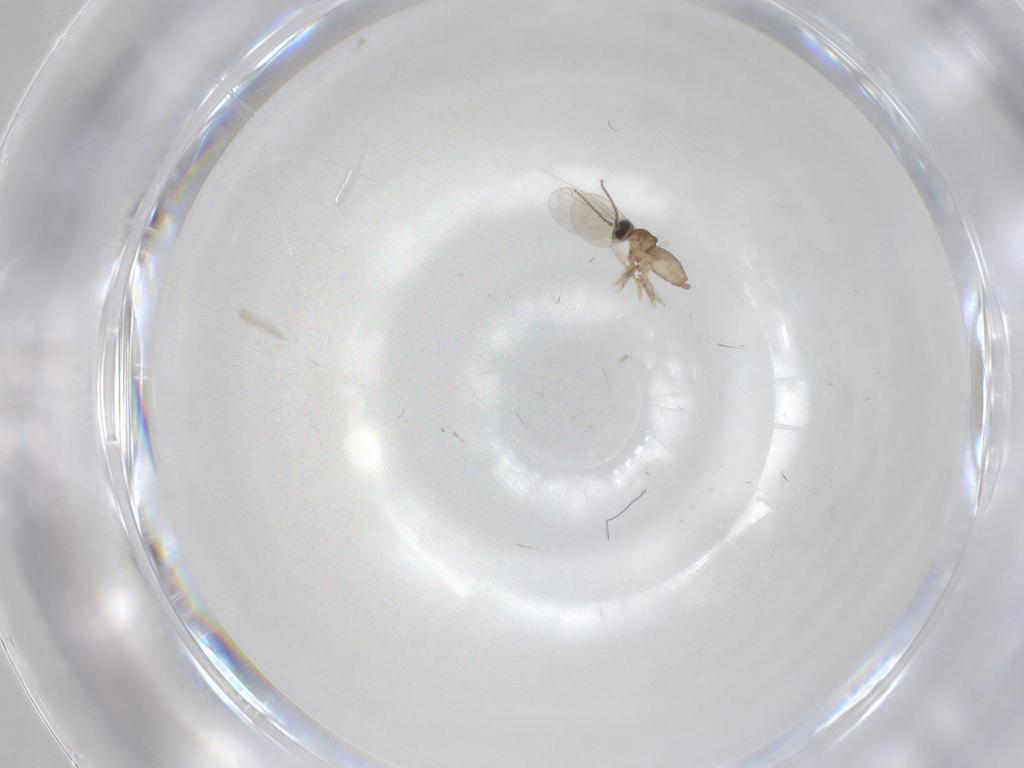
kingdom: Animalia
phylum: Arthropoda
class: Insecta
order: Diptera
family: Cecidomyiidae
